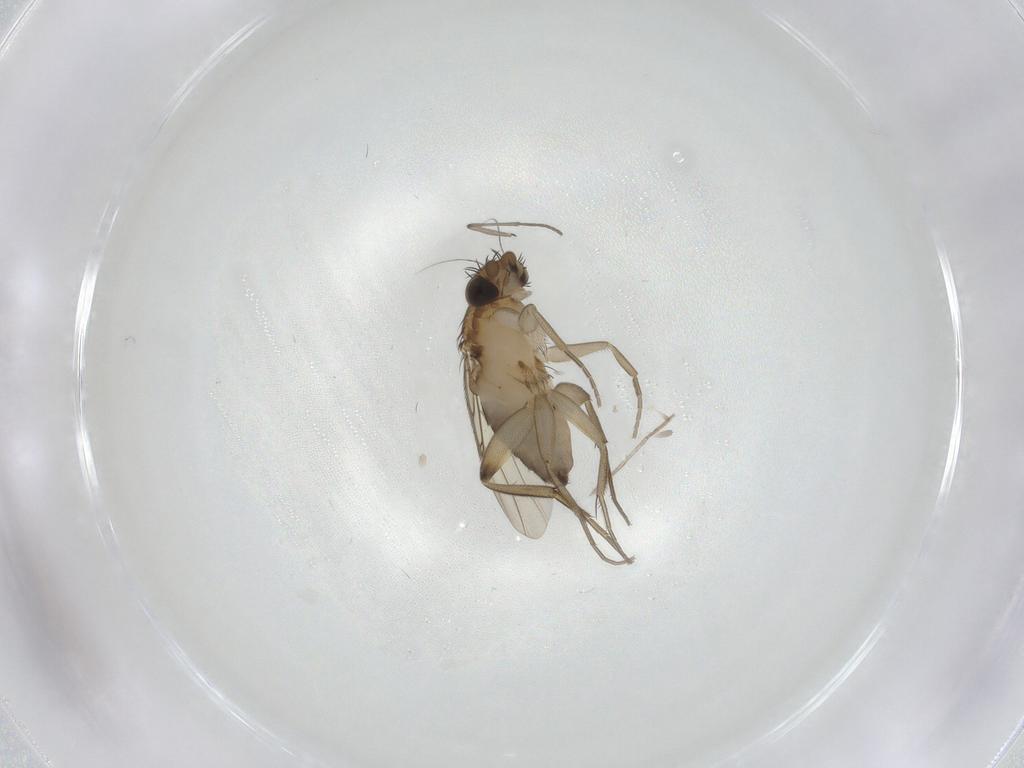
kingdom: Animalia
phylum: Arthropoda
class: Insecta
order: Diptera
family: Phoridae
